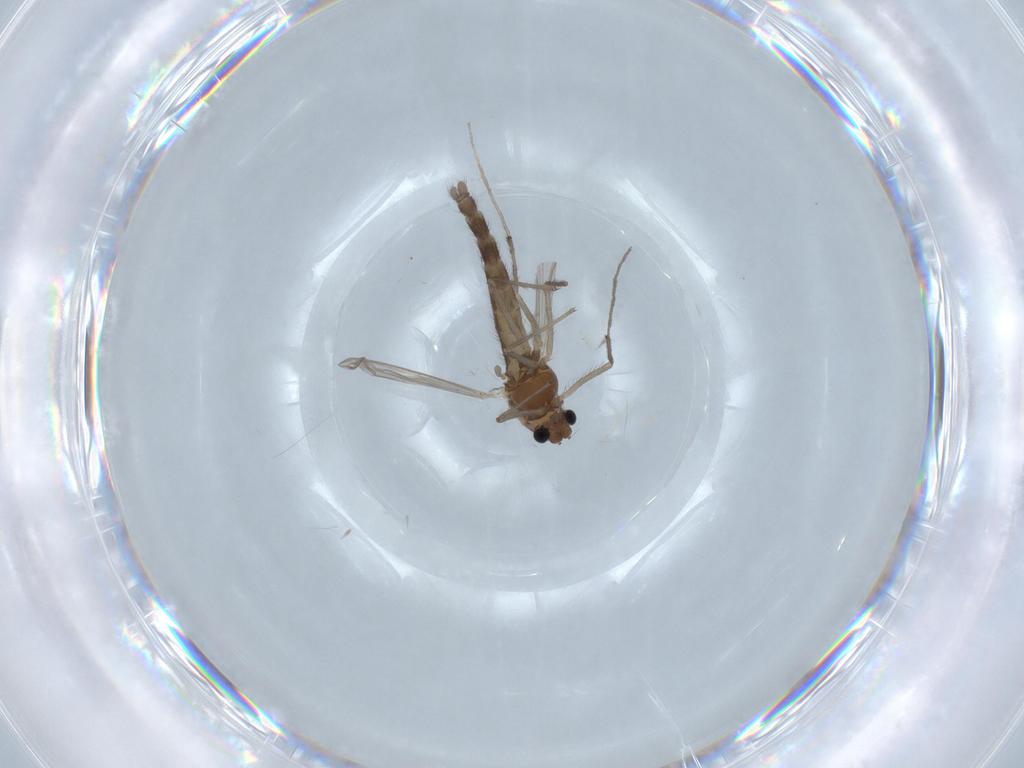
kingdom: Animalia
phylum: Arthropoda
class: Insecta
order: Diptera
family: Chironomidae
